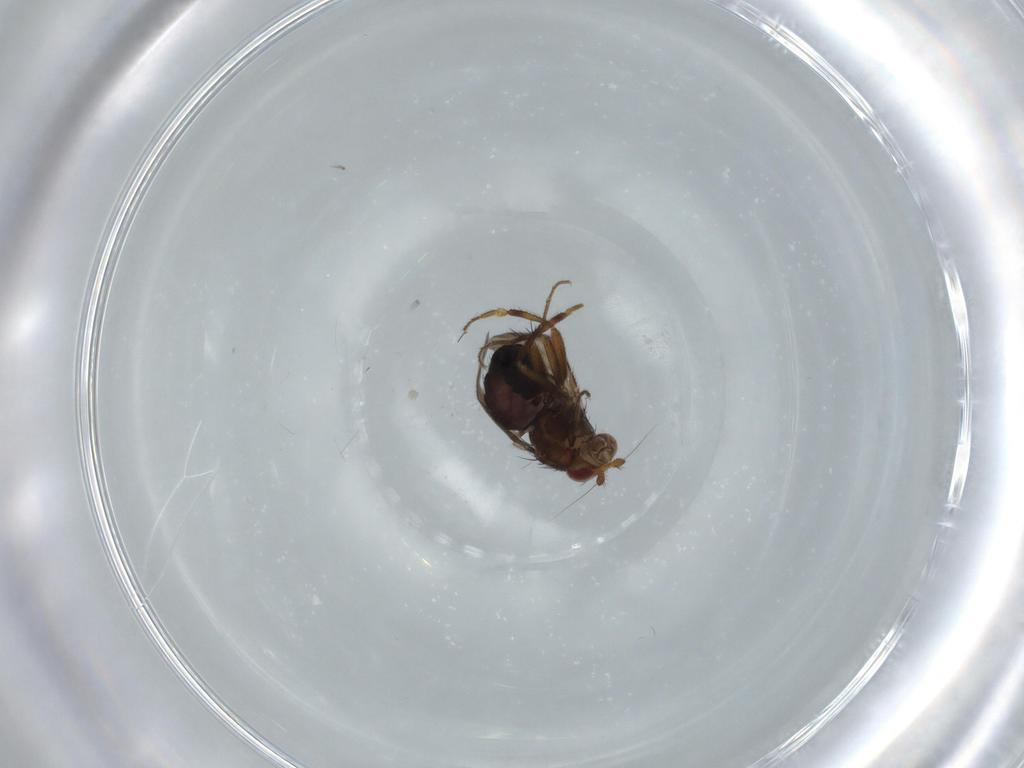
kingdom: Animalia
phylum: Arthropoda
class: Insecta
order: Diptera
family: Sphaeroceridae
